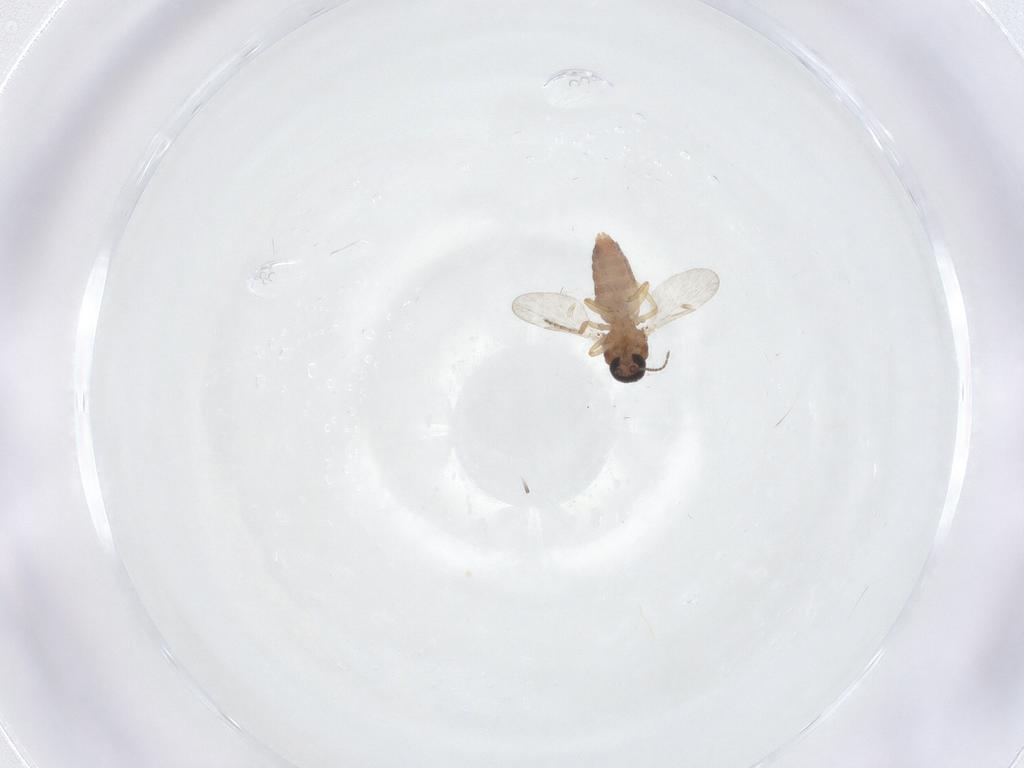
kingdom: Animalia
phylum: Arthropoda
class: Insecta
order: Diptera
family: Ceratopogonidae
